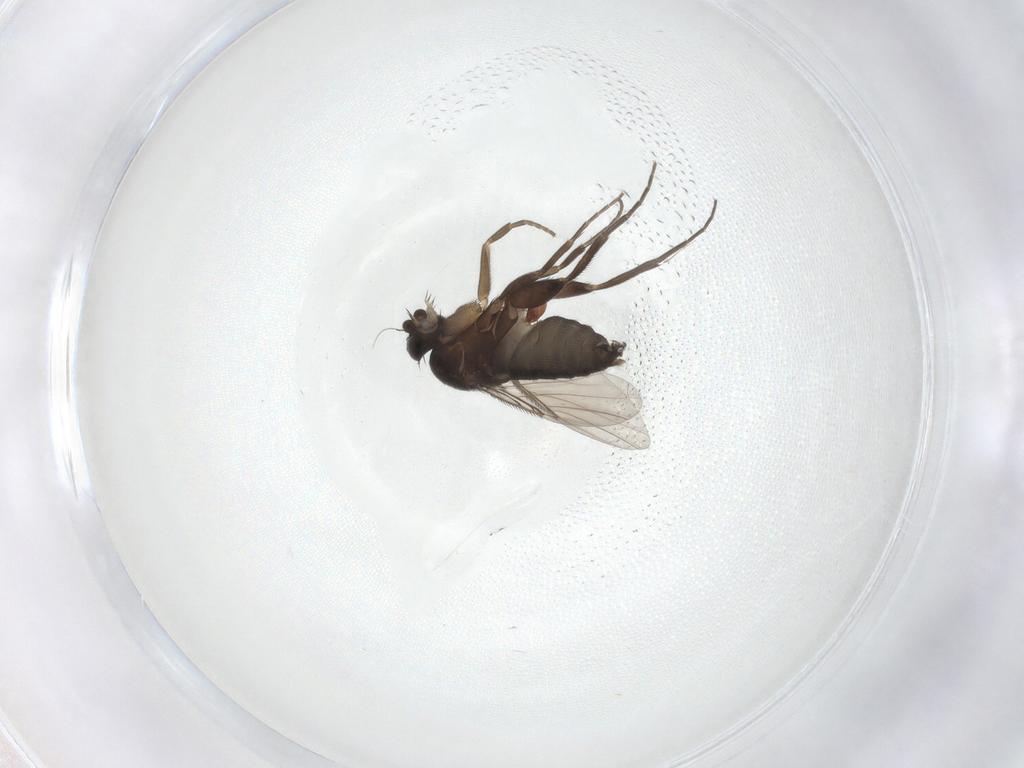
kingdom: Animalia
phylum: Arthropoda
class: Insecta
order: Diptera
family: Phoridae
